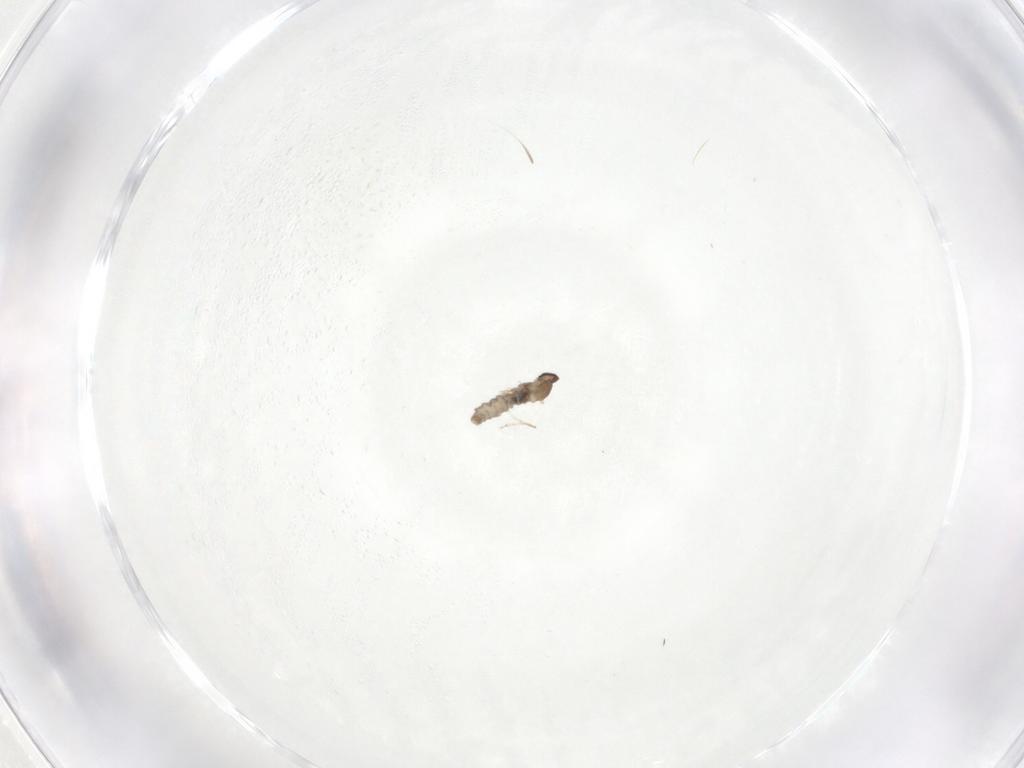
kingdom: Animalia
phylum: Arthropoda
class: Insecta
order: Diptera
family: Cecidomyiidae
